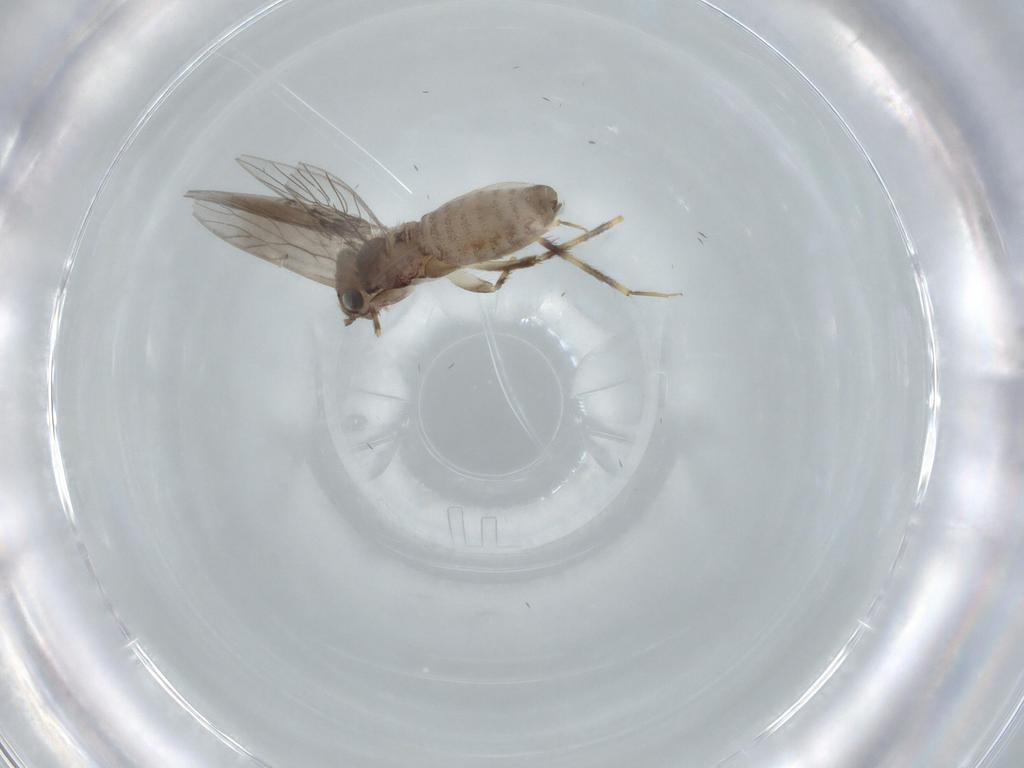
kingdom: Animalia
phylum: Arthropoda
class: Insecta
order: Psocodea
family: Lepidopsocidae
